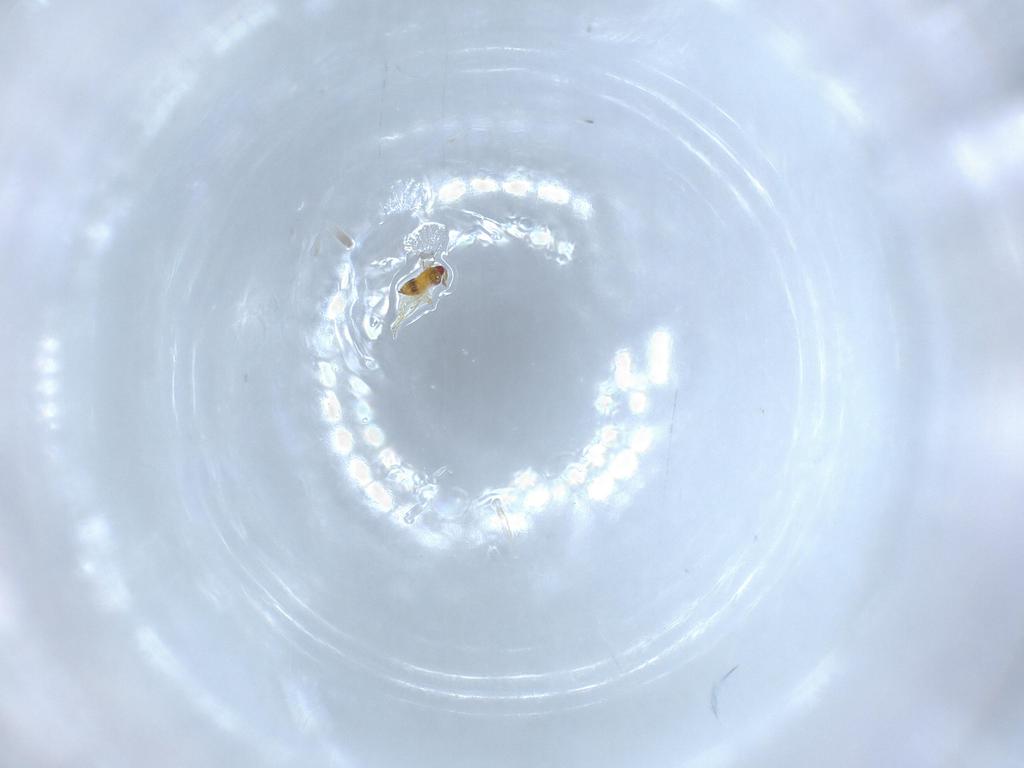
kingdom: Animalia
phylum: Arthropoda
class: Insecta
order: Hymenoptera
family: Trichogrammatidae
